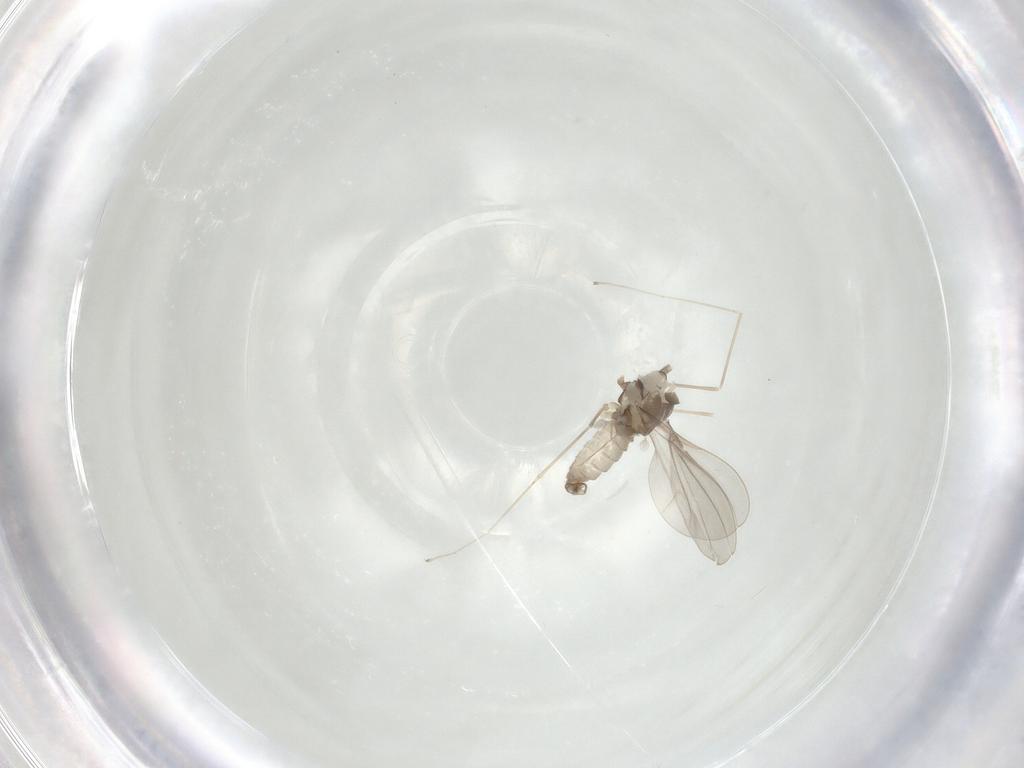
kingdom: Animalia
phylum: Arthropoda
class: Insecta
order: Diptera
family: Cecidomyiidae
